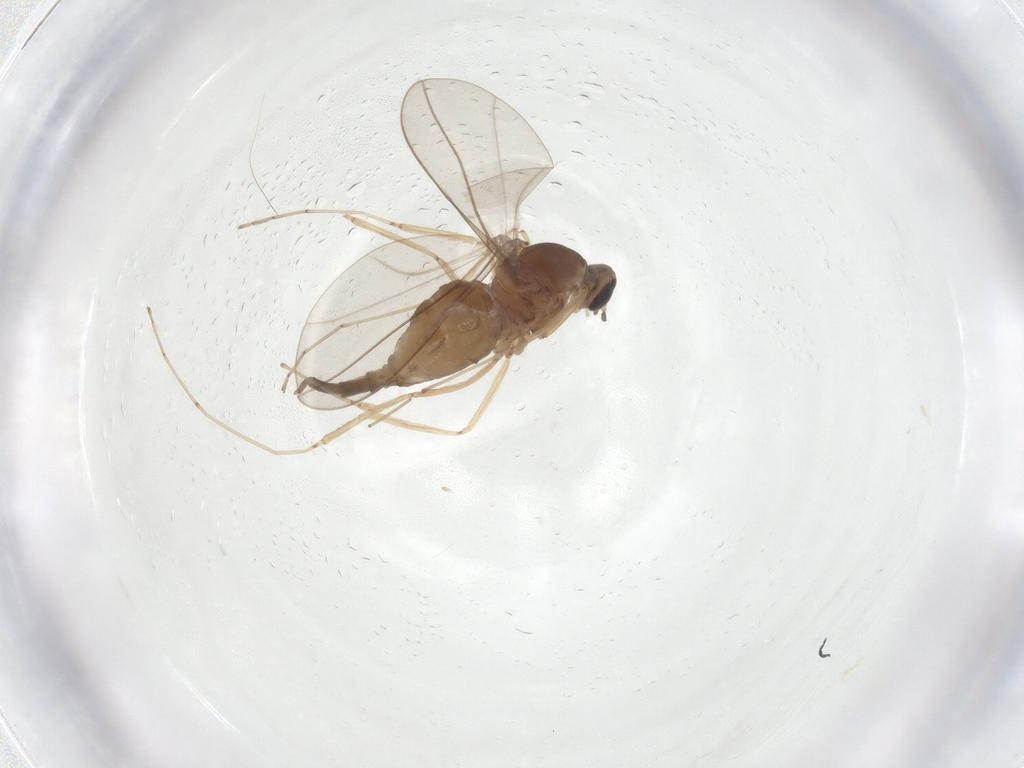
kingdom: Animalia
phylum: Arthropoda
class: Insecta
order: Diptera
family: Cecidomyiidae
